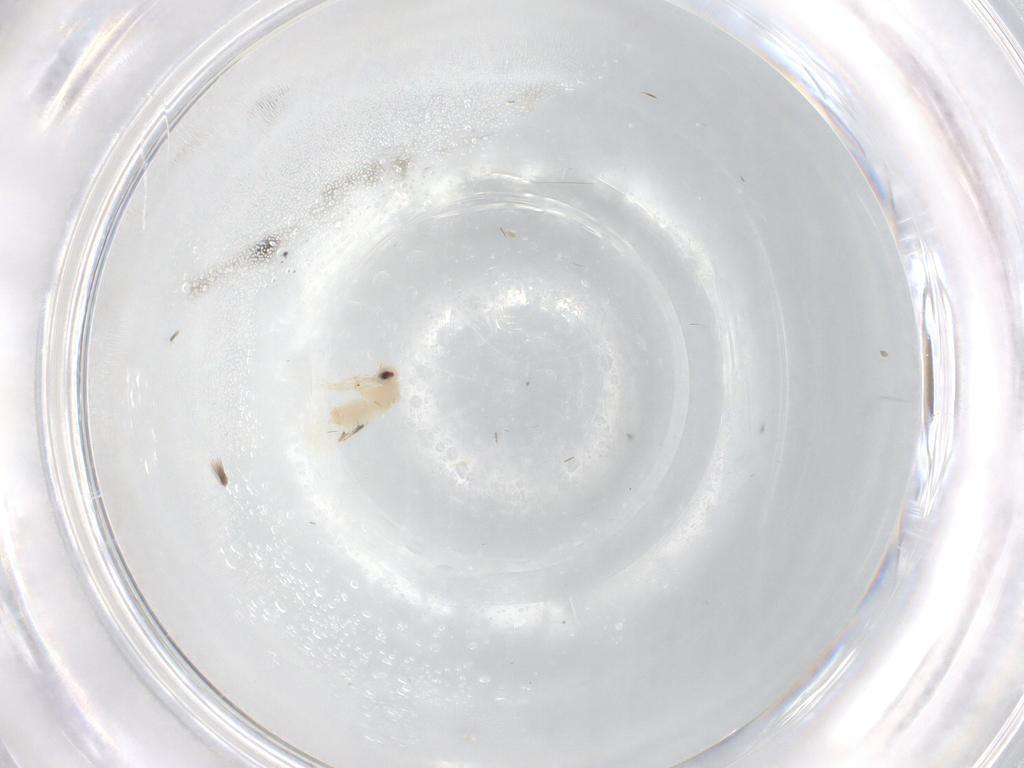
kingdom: Animalia
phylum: Arthropoda
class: Insecta
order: Hemiptera
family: Aleyrodidae
